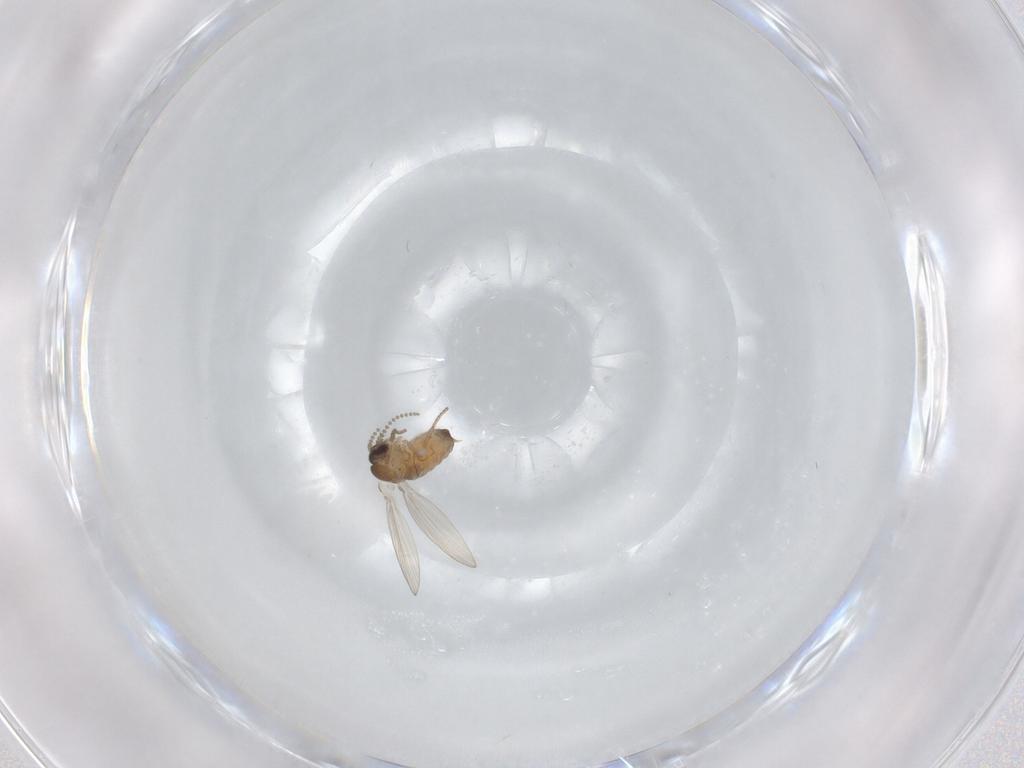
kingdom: Animalia
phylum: Arthropoda
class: Insecta
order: Diptera
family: Psychodidae
